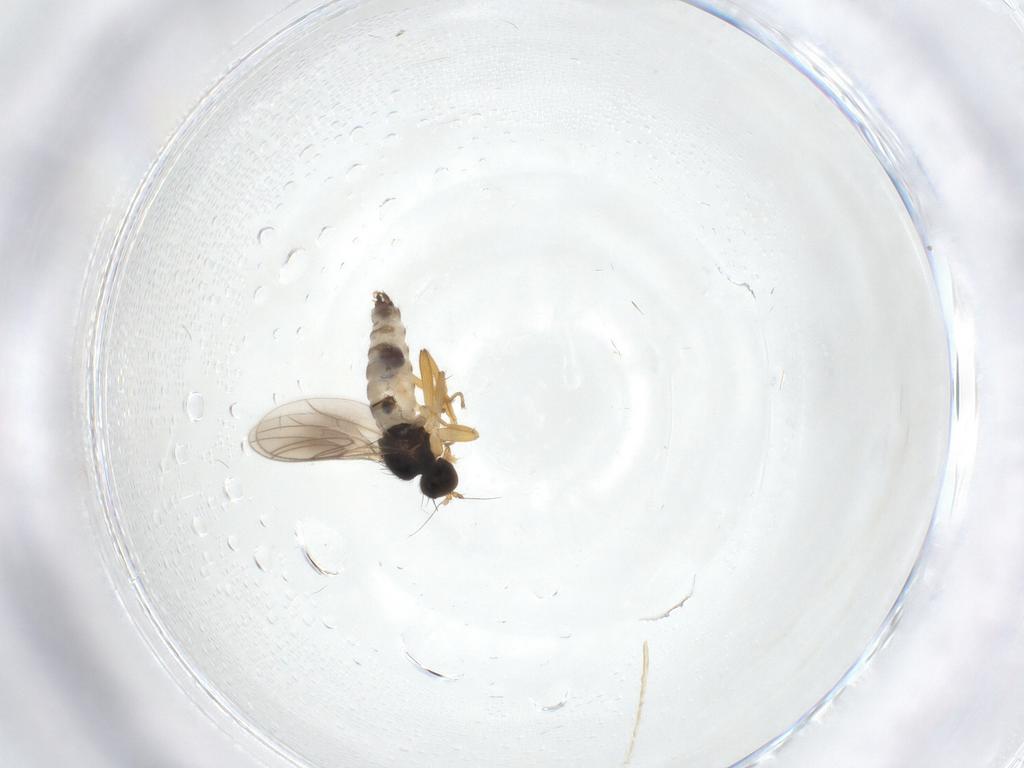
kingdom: Animalia
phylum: Arthropoda
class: Insecta
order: Diptera
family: Hybotidae
